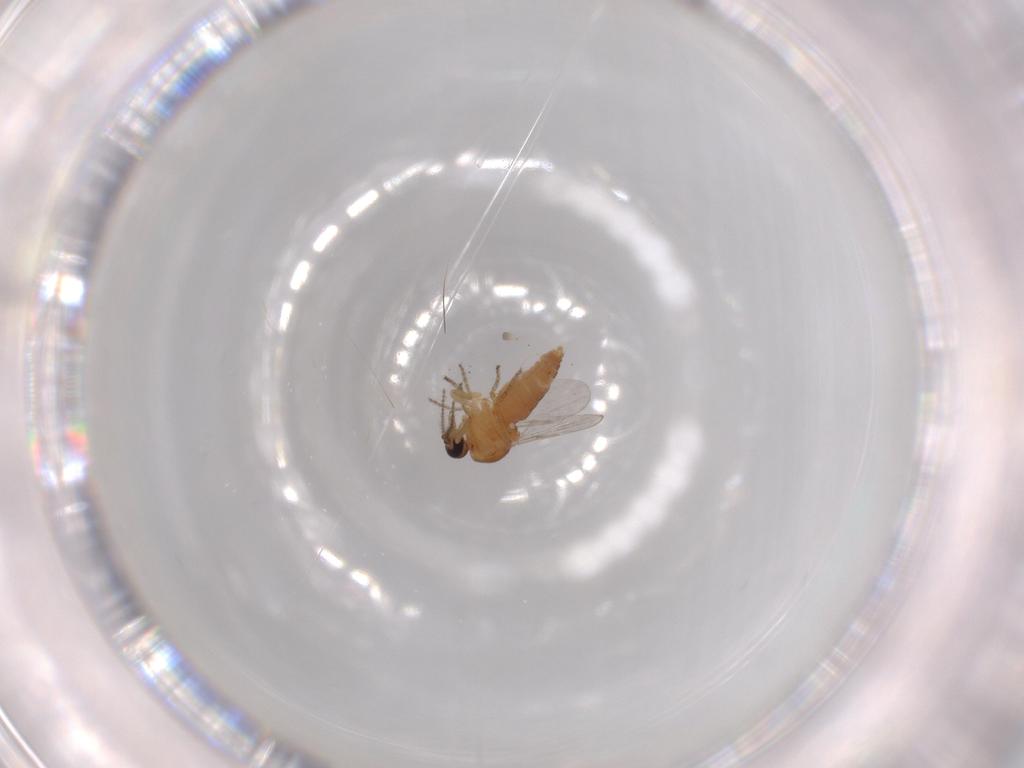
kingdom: Animalia
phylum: Arthropoda
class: Insecta
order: Diptera
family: Ceratopogonidae
